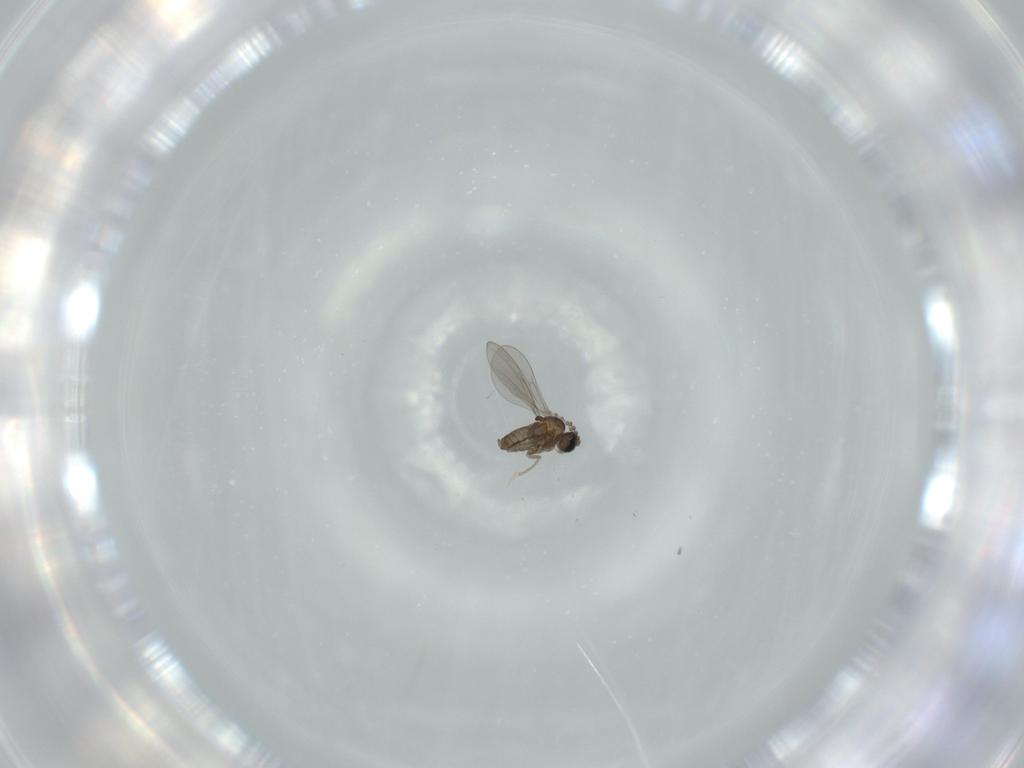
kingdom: Animalia
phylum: Arthropoda
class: Insecta
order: Diptera
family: Cecidomyiidae
